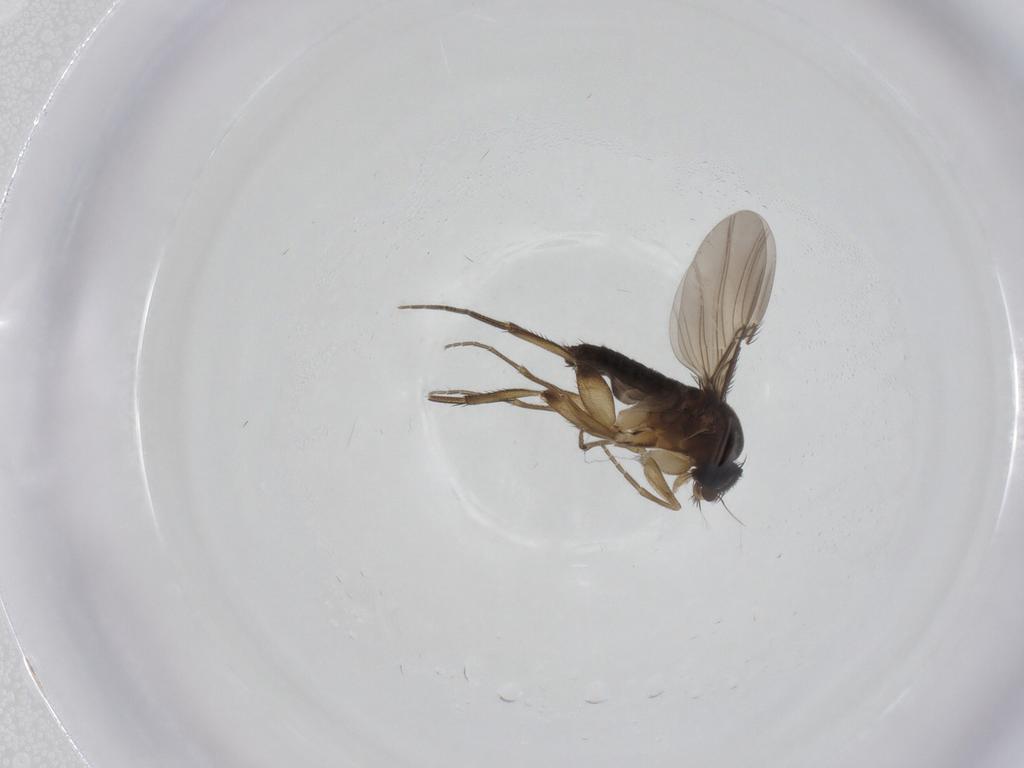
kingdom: Animalia
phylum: Arthropoda
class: Insecta
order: Diptera
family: Phoridae
